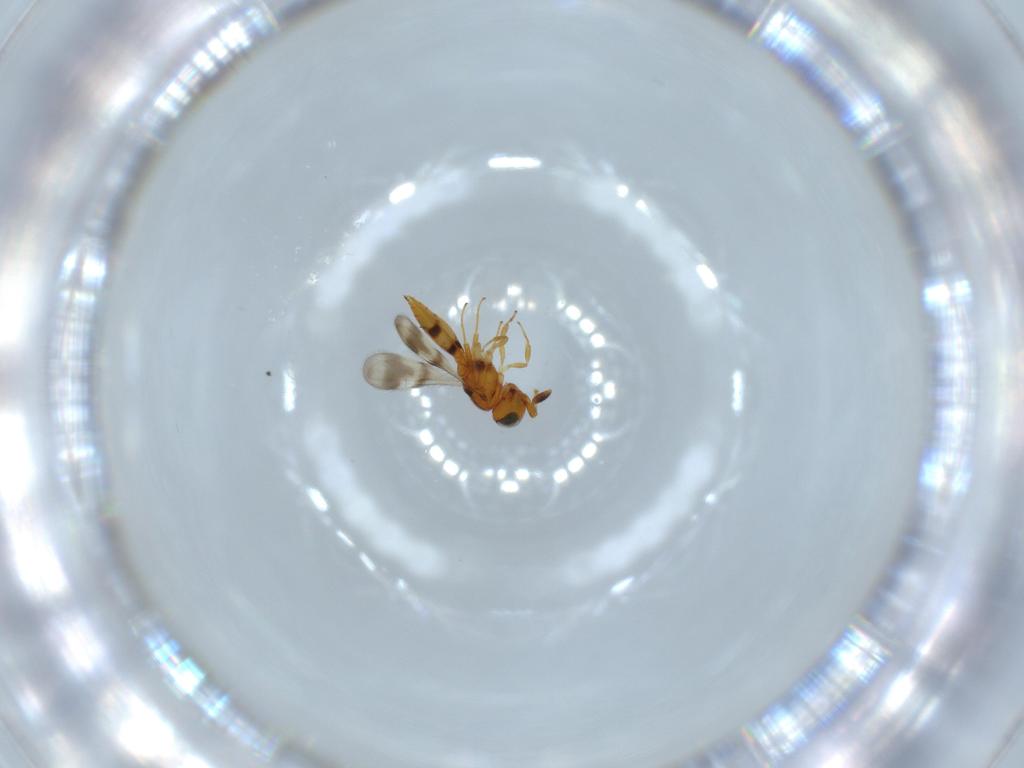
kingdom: Animalia
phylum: Arthropoda
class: Insecta
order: Hymenoptera
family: Scelionidae
